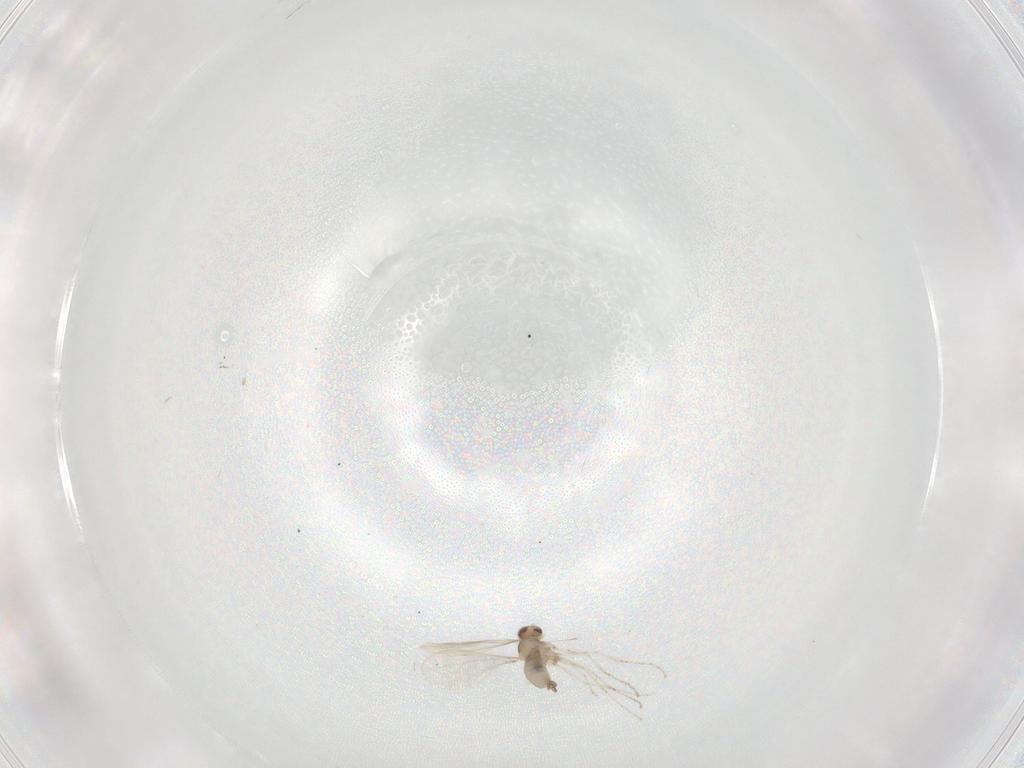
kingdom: Animalia
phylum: Arthropoda
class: Insecta
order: Diptera
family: Cecidomyiidae
